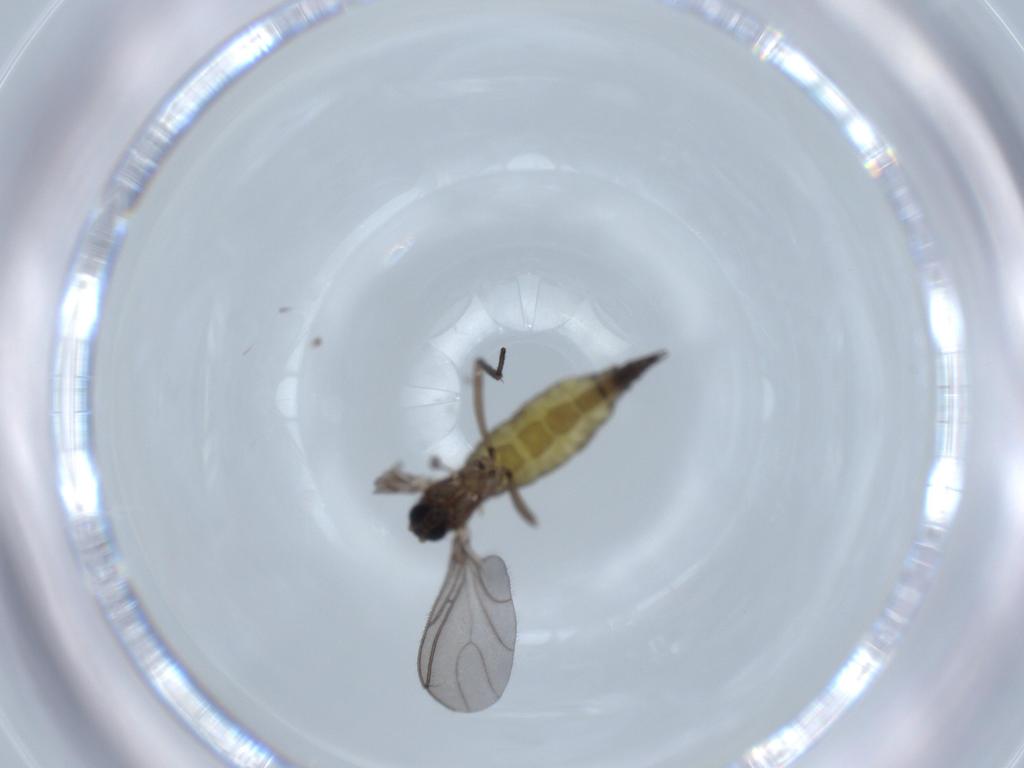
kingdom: Animalia
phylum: Arthropoda
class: Insecta
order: Diptera
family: Sciaridae
